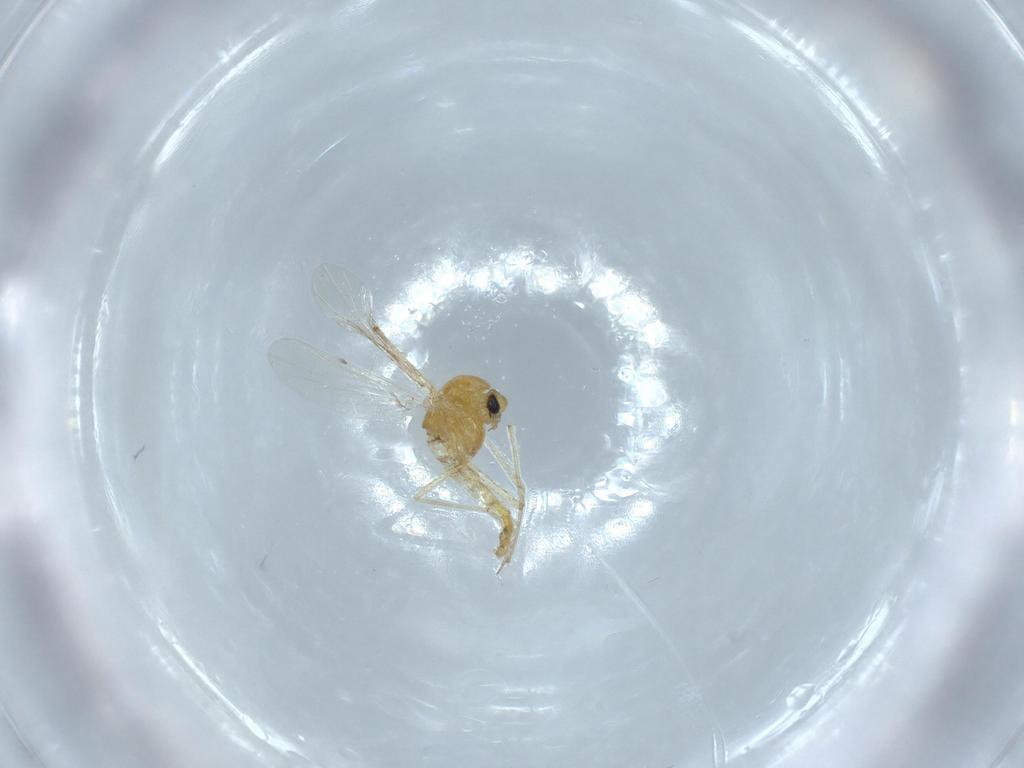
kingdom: Animalia
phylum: Arthropoda
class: Insecta
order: Diptera
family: Chironomidae
